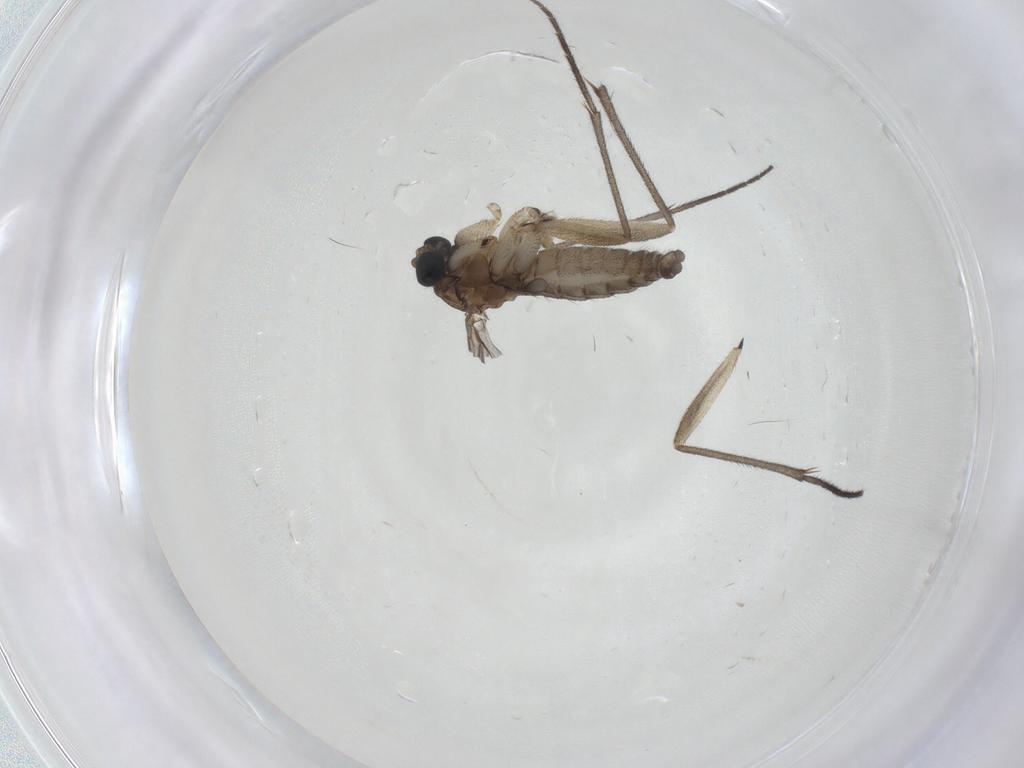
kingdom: Animalia
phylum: Arthropoda
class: Insecta
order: Diptera
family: Sciaridae
